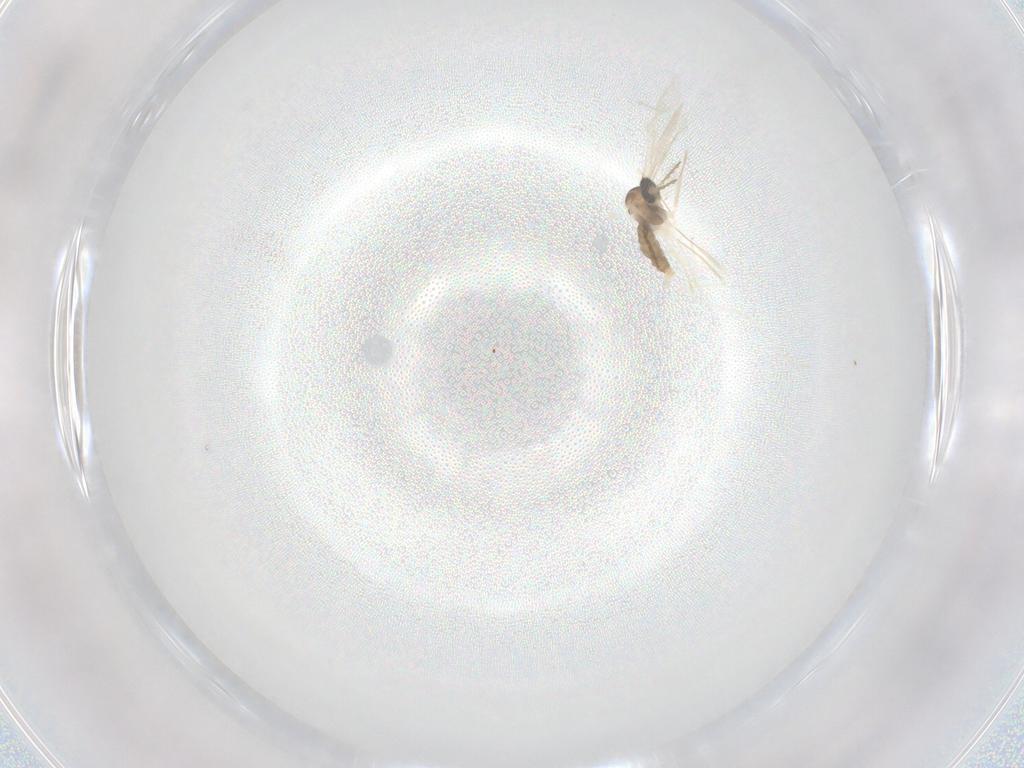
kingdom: Animalia
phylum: Arthropoda
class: Insecta
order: Diptera
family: Cecidomyiidae
